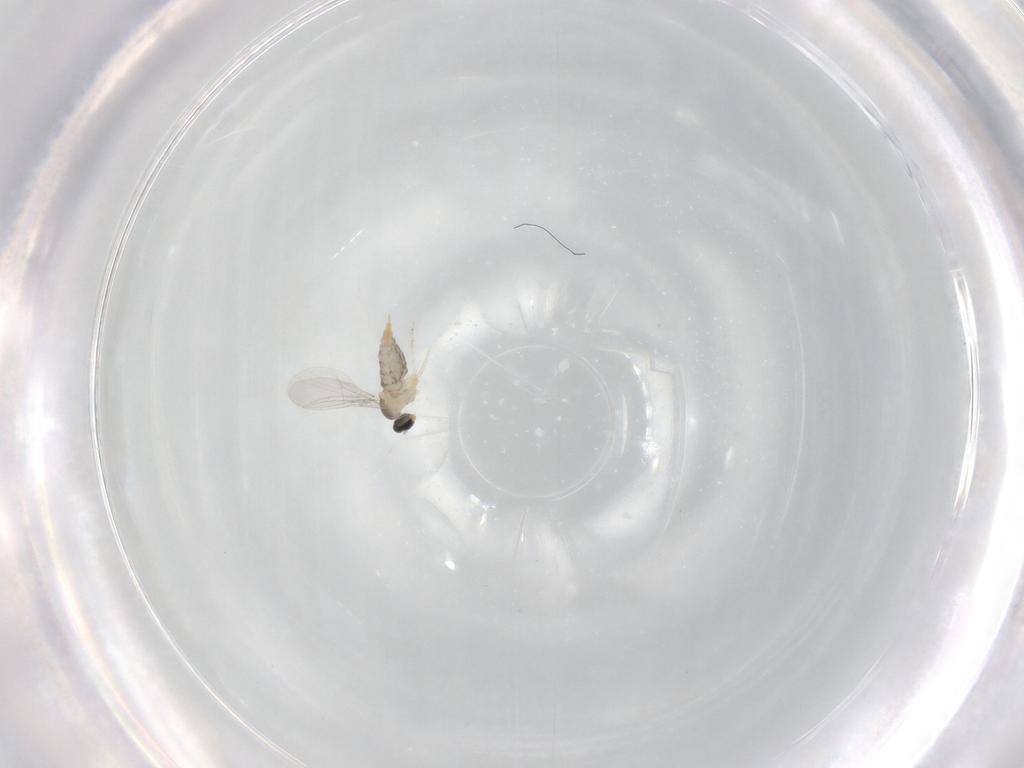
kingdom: Animalia
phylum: Arthropoda
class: Insecta
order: Diptera
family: Cecidomyiidae
